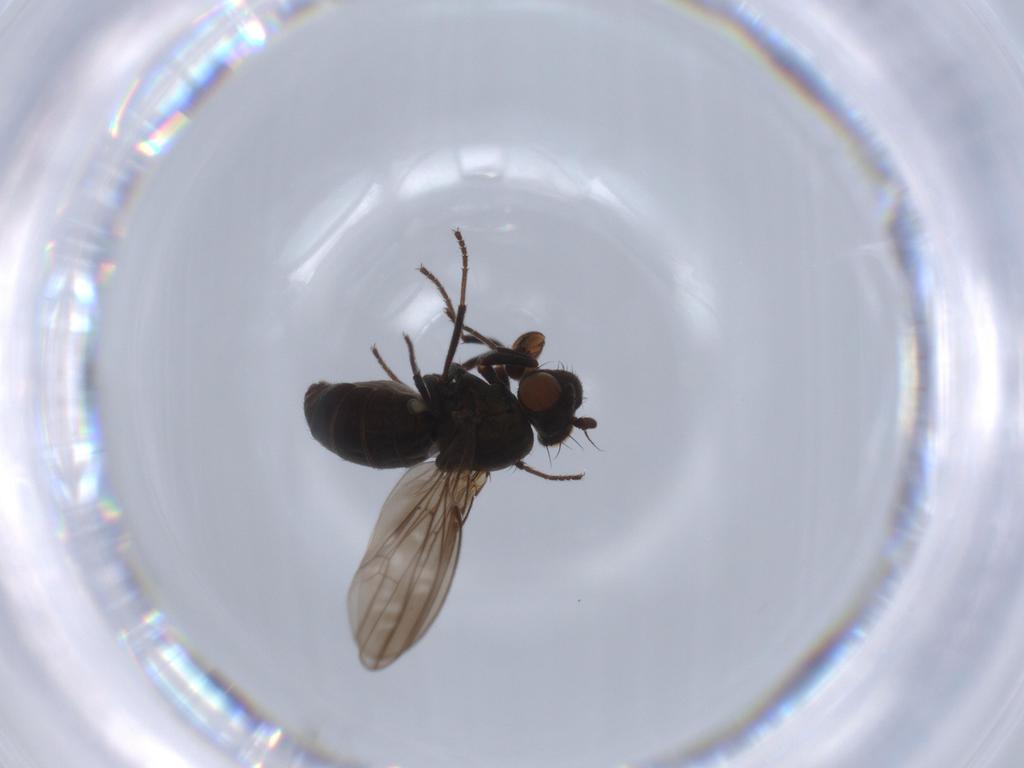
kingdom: Animalia
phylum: Arthropoda
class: Insecta
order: Diptera
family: Ephydridae
